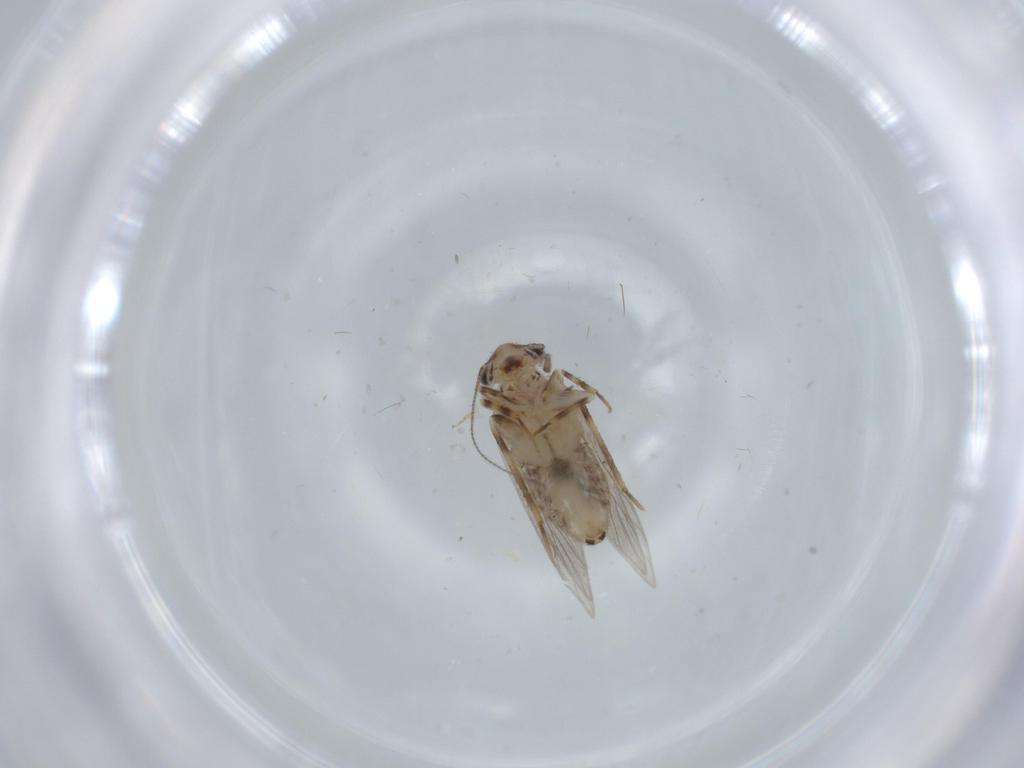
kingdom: Animalia
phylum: Arthropoda
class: Insecta
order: Psocodea
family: Lepidopsocidae
